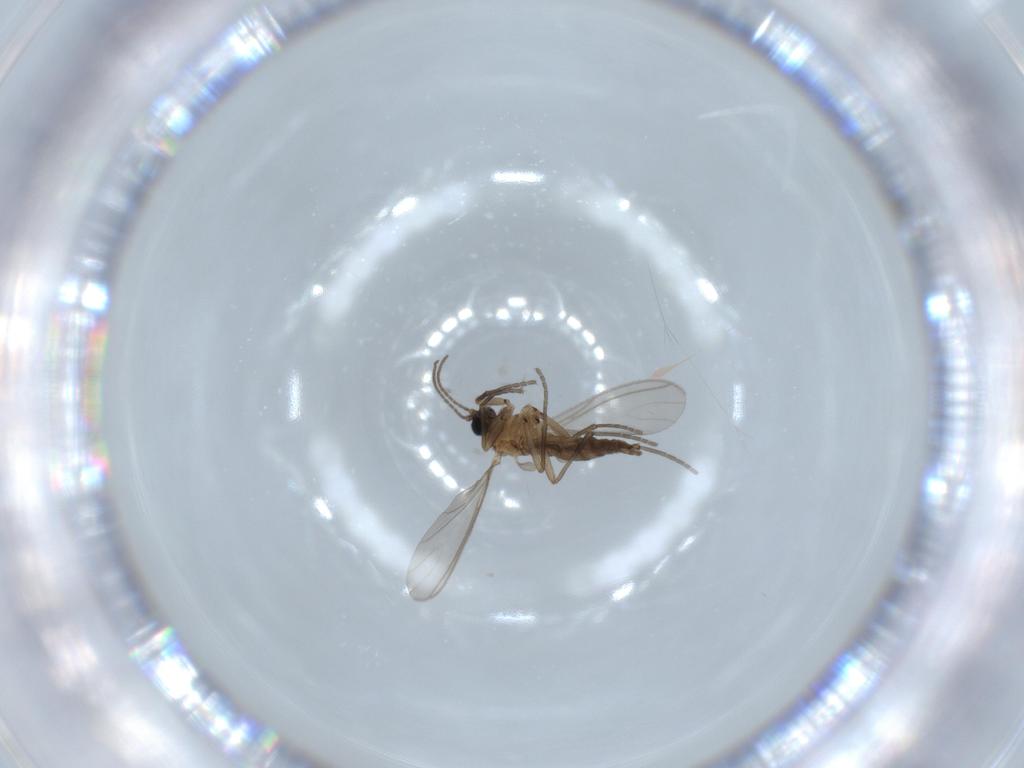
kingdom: Animalia
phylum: Arthropoda
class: Insecta
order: Diptera
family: Sciaridae
